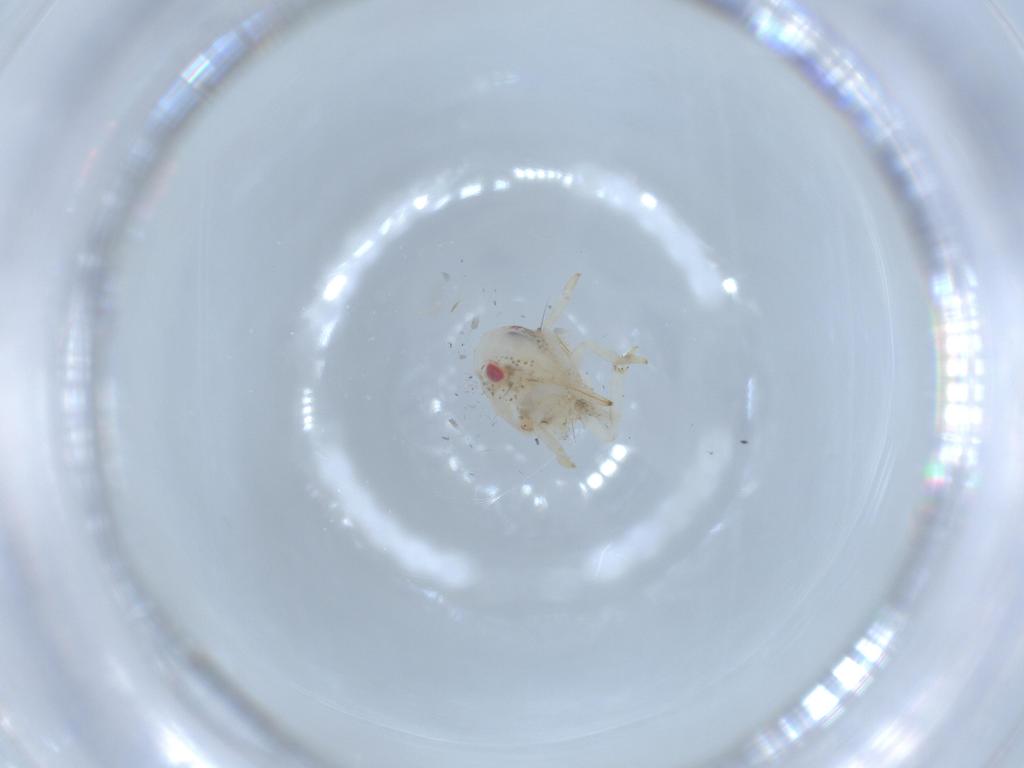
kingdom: Animalia
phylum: Arthropoda
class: Insecta
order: Hemiptera
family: Acanaloniidae
